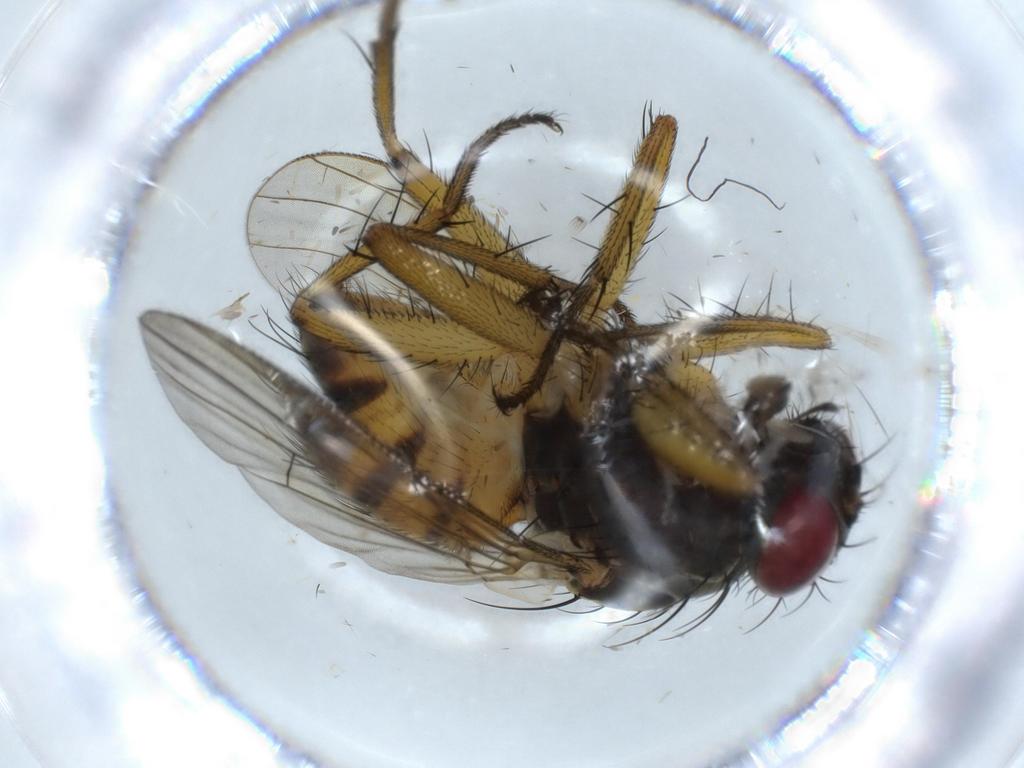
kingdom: Animalia
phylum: Arthropoda
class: Insecta
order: Diptera
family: Muscidae
